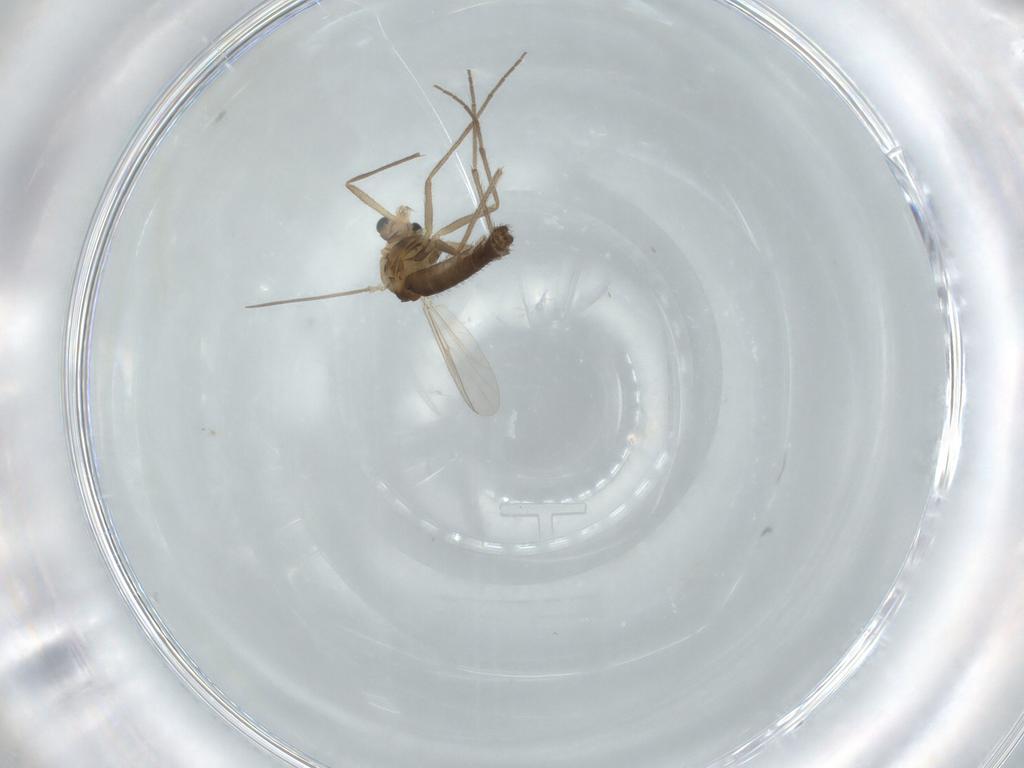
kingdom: Animalia
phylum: Arthropoda
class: Insecta
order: Diptera
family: Chironomidae
